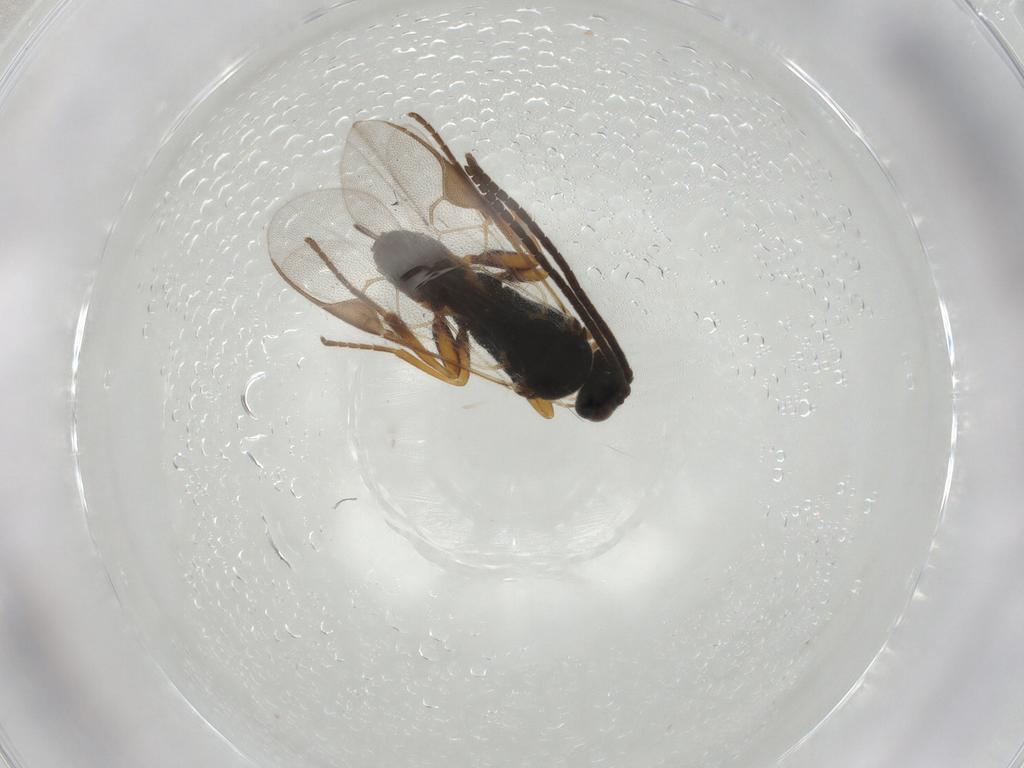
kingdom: Animalia
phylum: Arthropoda
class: Insecta
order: Hymenoptera
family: Braconidae
